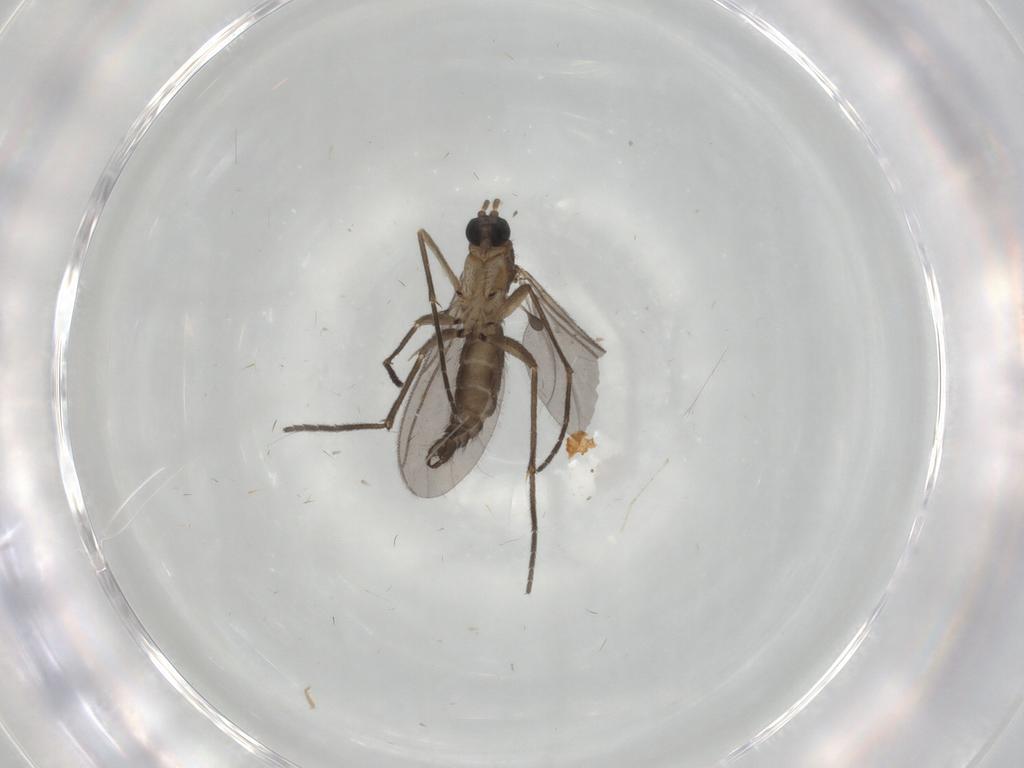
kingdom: Animalia
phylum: Arthropoda
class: Insecta
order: Diptera
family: Sciaridae
